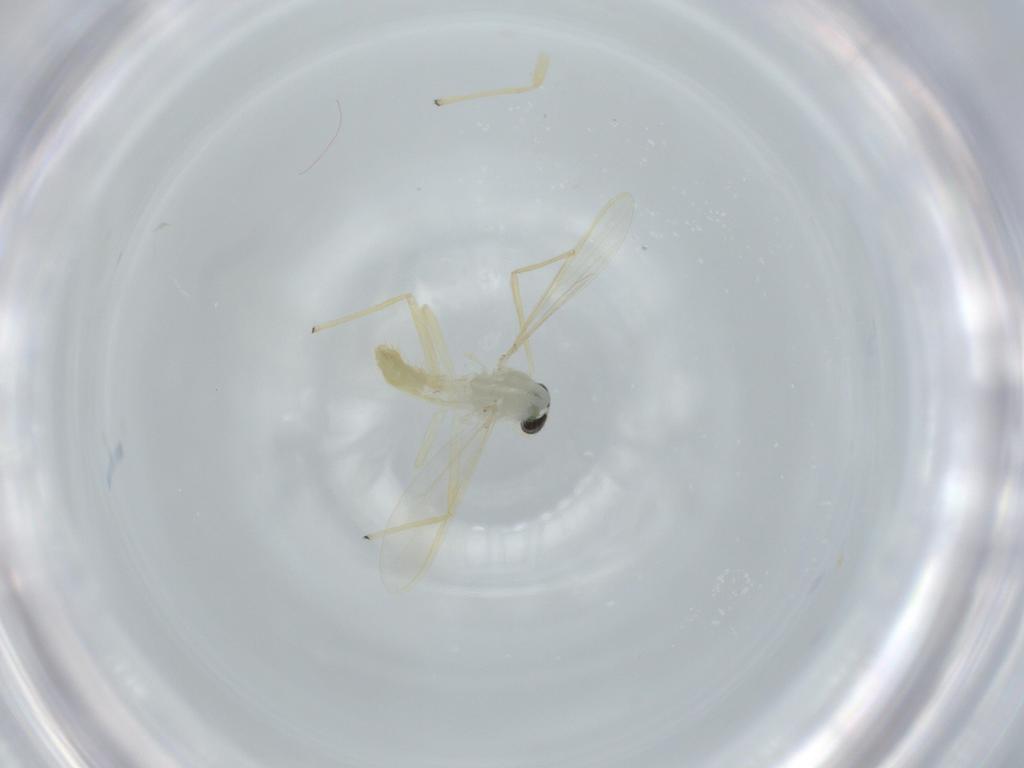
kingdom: Animalia
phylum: Arthropoda
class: Insecta
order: Diptera
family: Chironomidae
